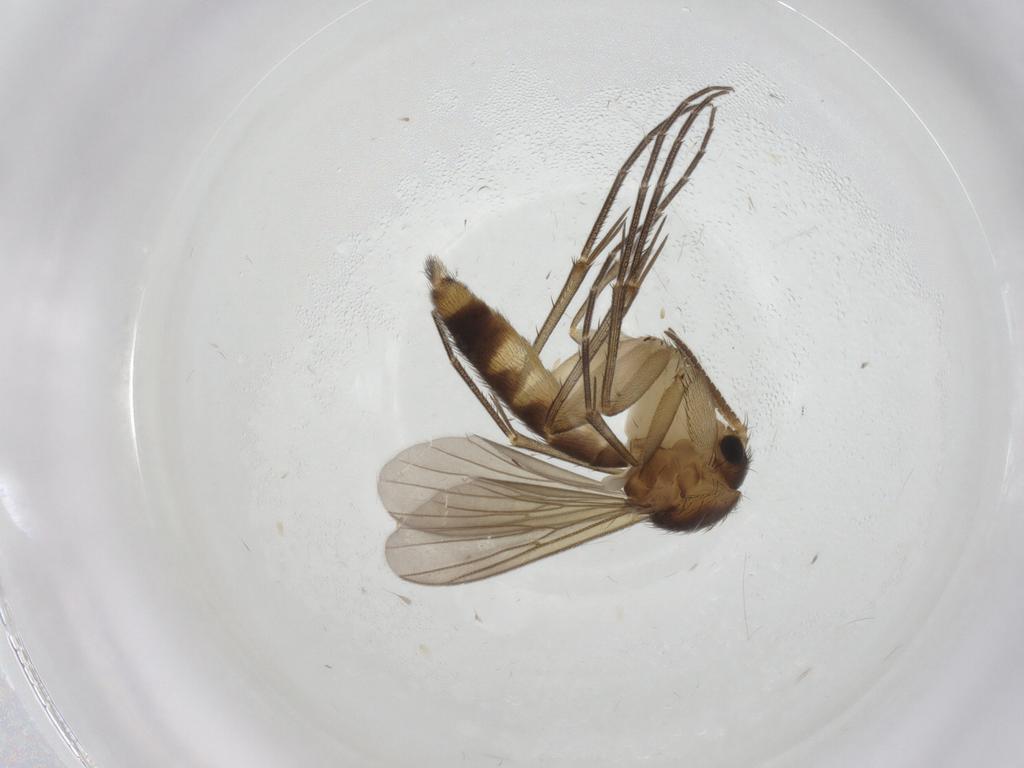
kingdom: Animalia
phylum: Arthropoda
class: Insecta
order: Diptera
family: Mycetophilidae
